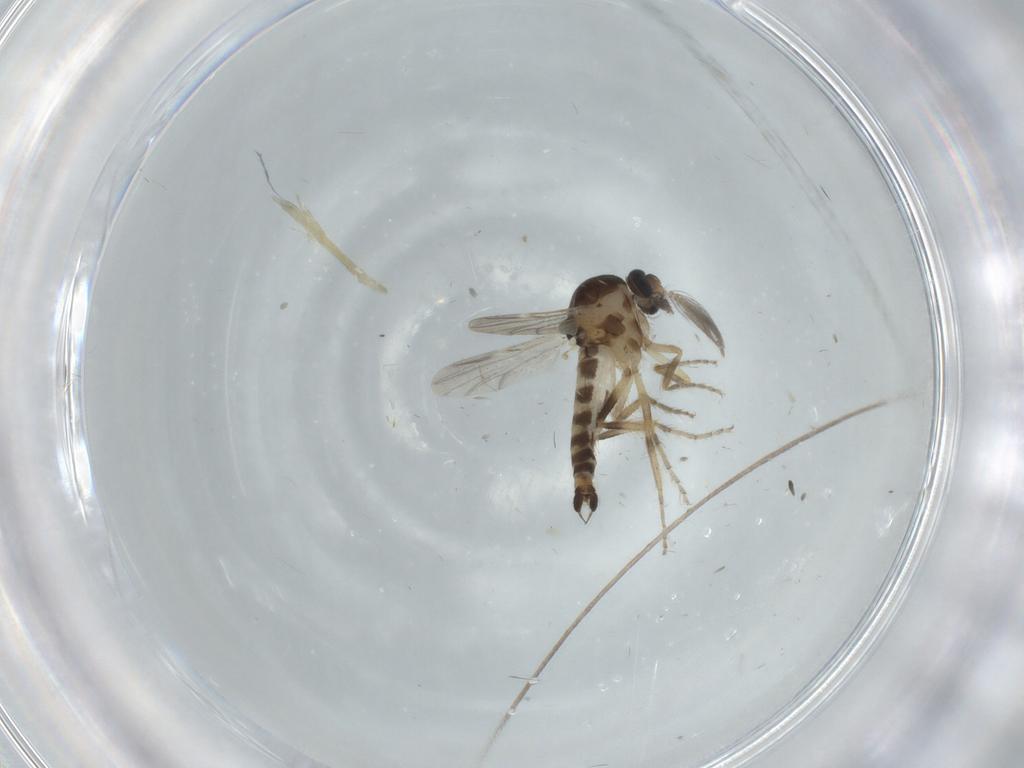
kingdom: Animalia
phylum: Arthropoda
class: Insecta
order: Diptera
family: Ceratopogonidae
